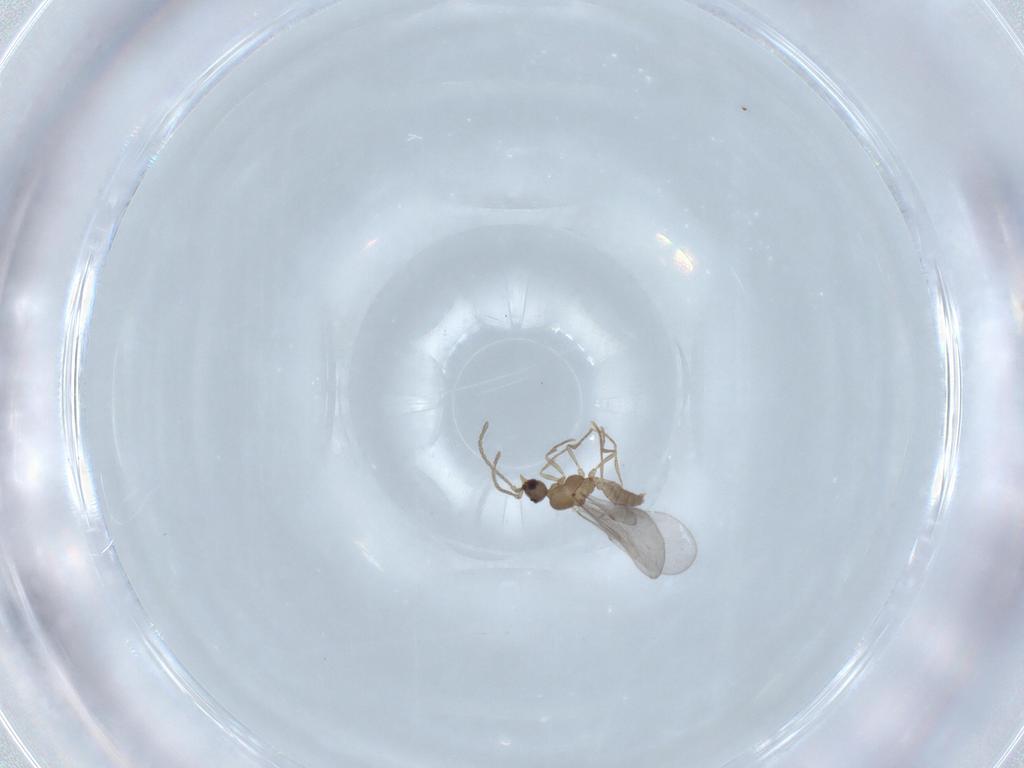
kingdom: Animalia
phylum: Arthropoda
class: Insecta
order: Hymenoptera
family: Formicidae
